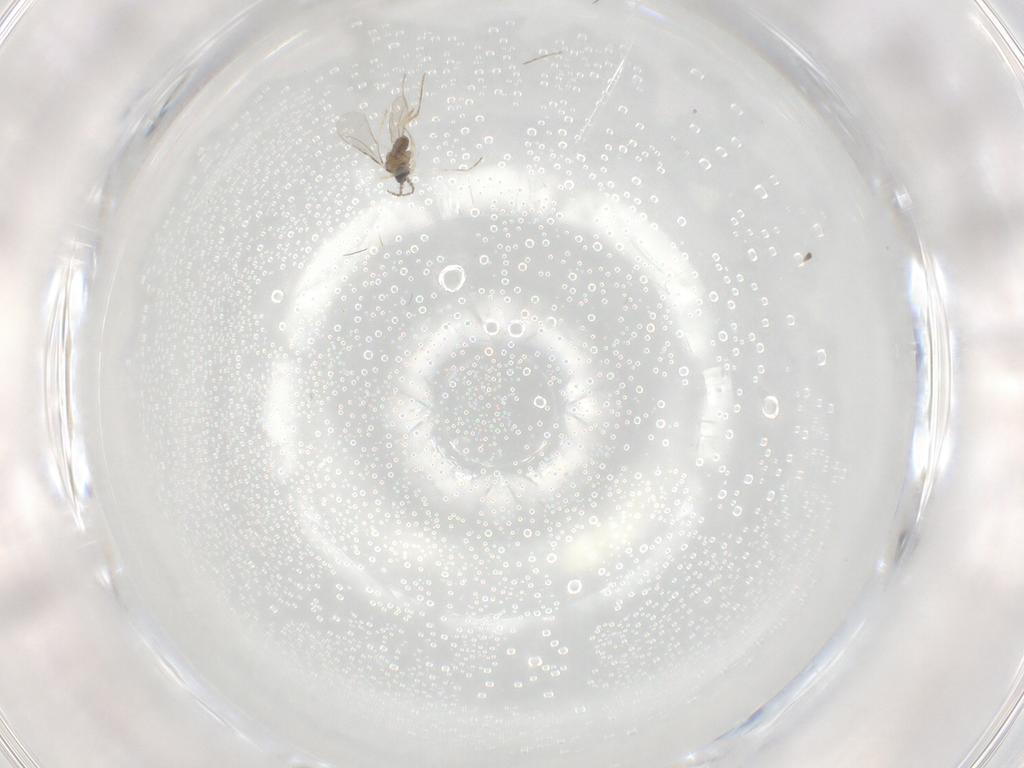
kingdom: Animalia
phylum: Arthropoda
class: Insecta
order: Diptera
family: Cecidomyiidae
